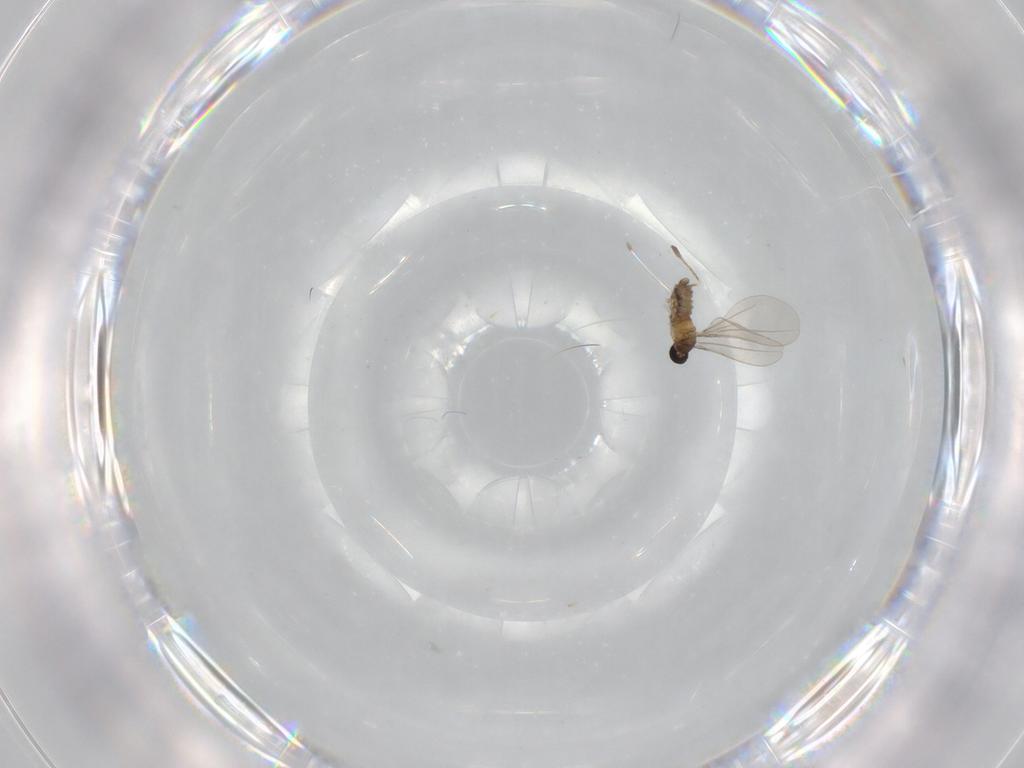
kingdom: Animalia
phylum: Arthropoda
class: Insecta
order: Diptera
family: Cecidomyiidae
